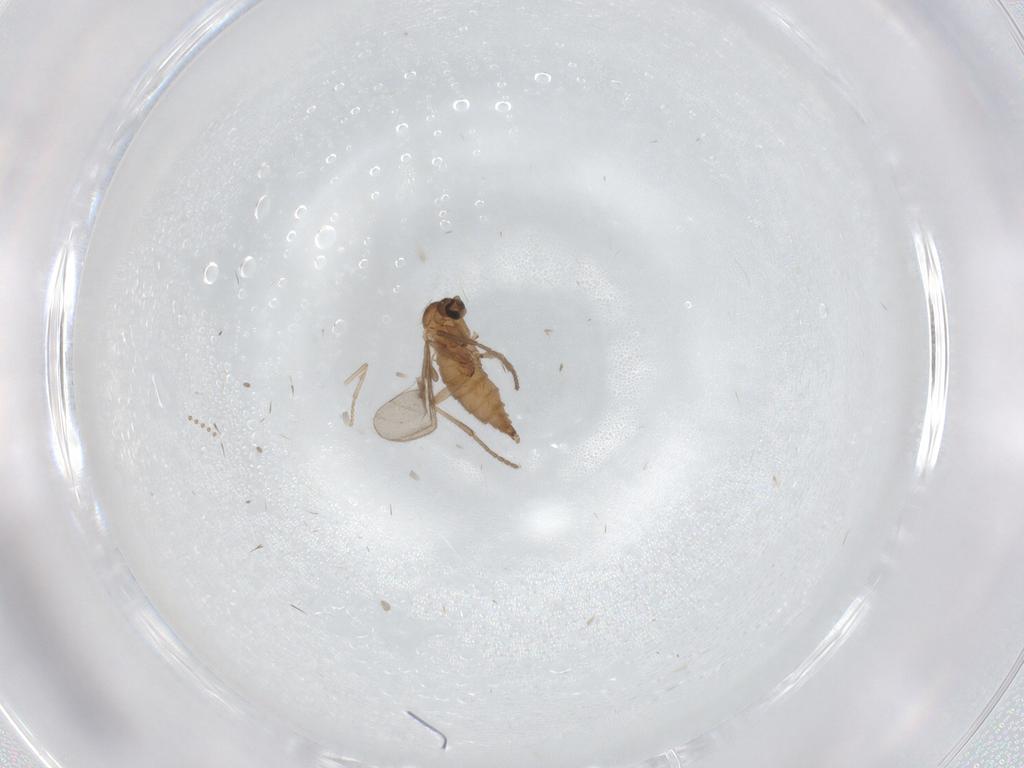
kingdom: Animalia
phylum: Arthropoda
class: Insecta
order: Diptera
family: Sciaridae
